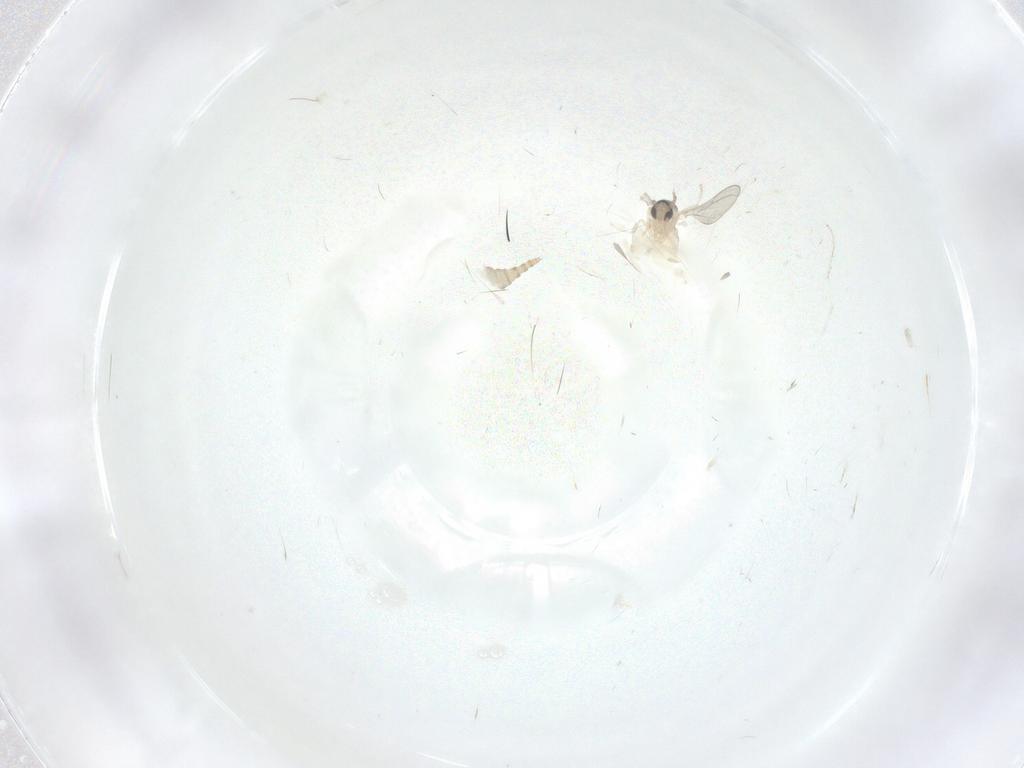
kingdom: Animalia
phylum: Arthropoda
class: Insecta
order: Diptera
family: Cecidomyiidae
